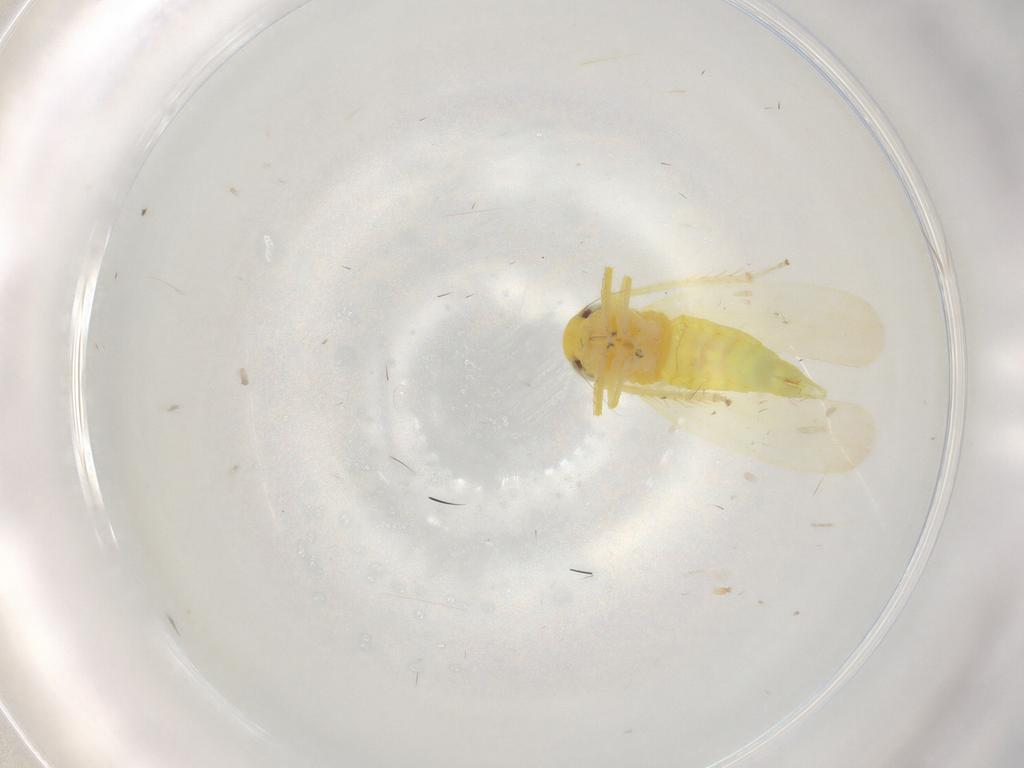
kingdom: Animalia
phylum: Arthropoda
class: Insecta
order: Hemiptera
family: Cicadellidae
